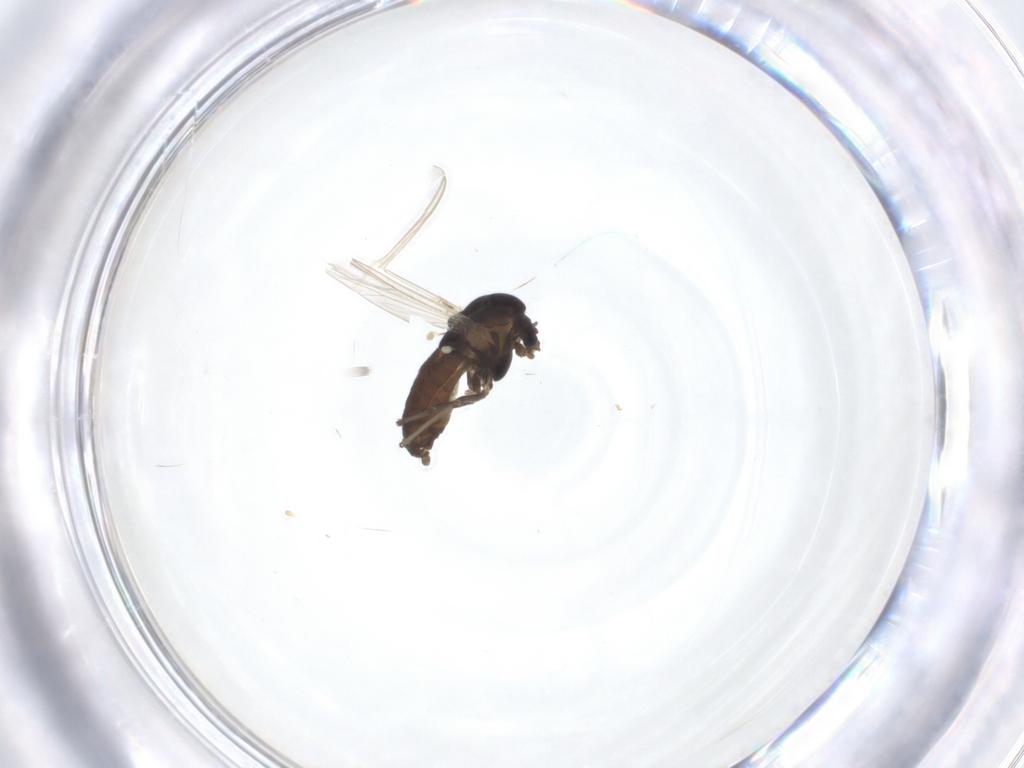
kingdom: Animalia
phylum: Arthropoda
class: Insecta
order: Diptera
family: Chironomidae
